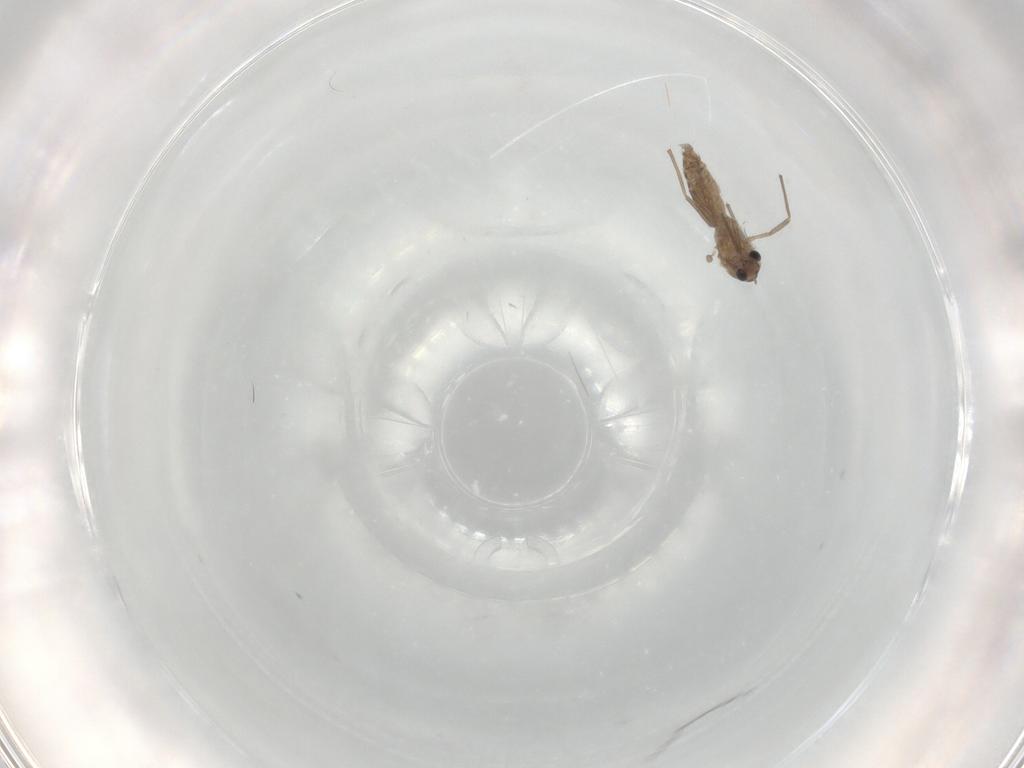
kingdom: Animalia
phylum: Arthropoda
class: Insecta
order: Diptera
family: Chironomidae
